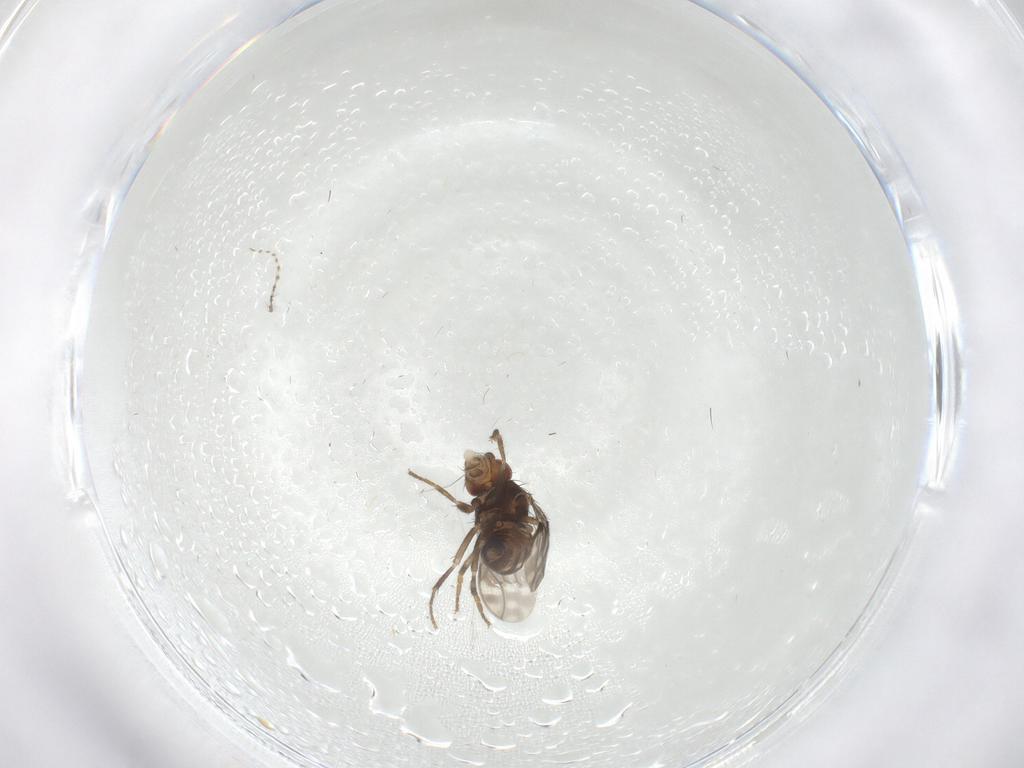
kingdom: Animalia
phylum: Arthropoda
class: Insecta
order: Diptera
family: Sphaeroceridae
